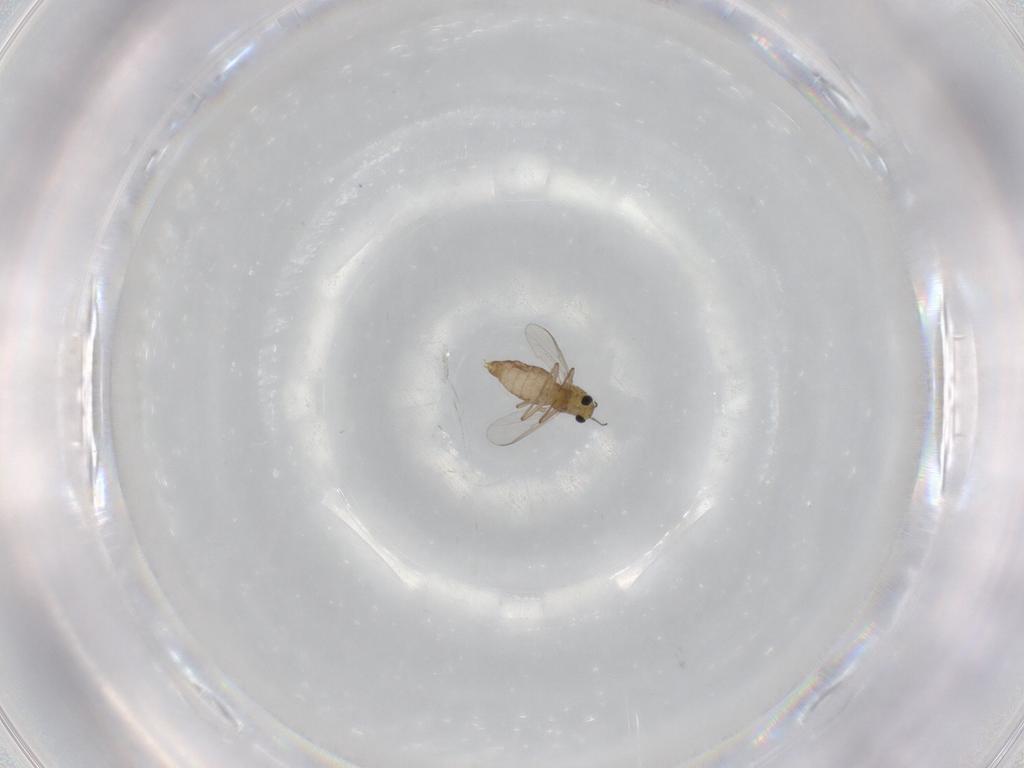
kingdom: Animalia
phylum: Arthropoda
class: Insecta
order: Diptera
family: Chironomidae
